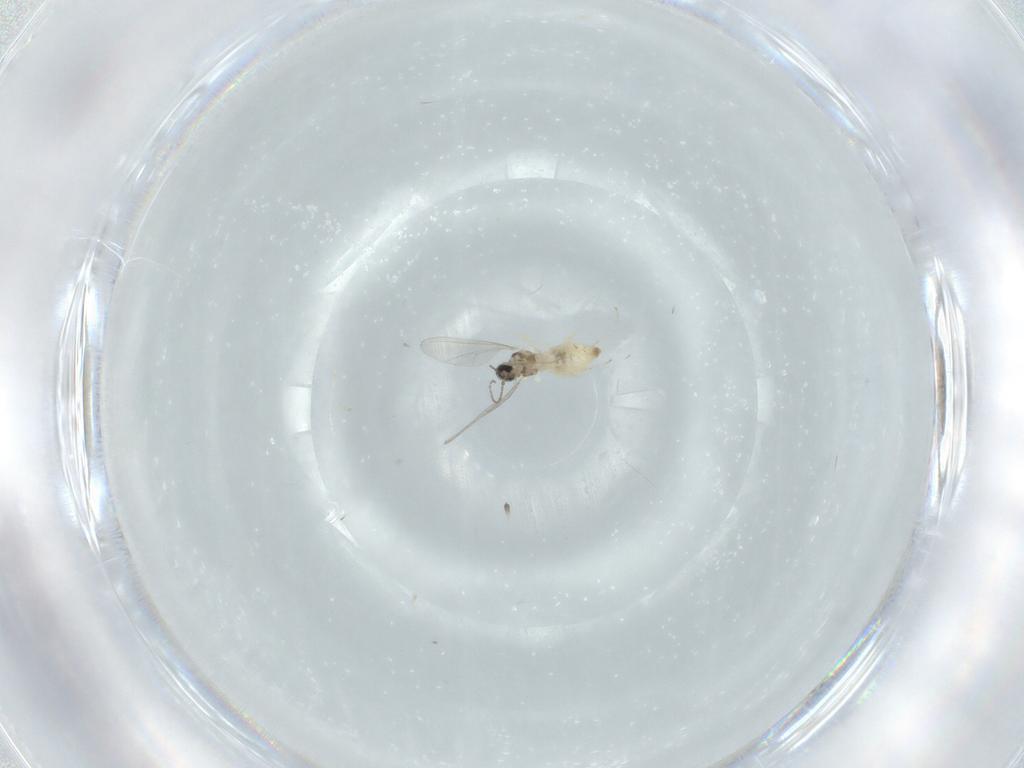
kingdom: Animalia
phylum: Arthropoda
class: Insecta
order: Diptera
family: Cecidomyiidae
